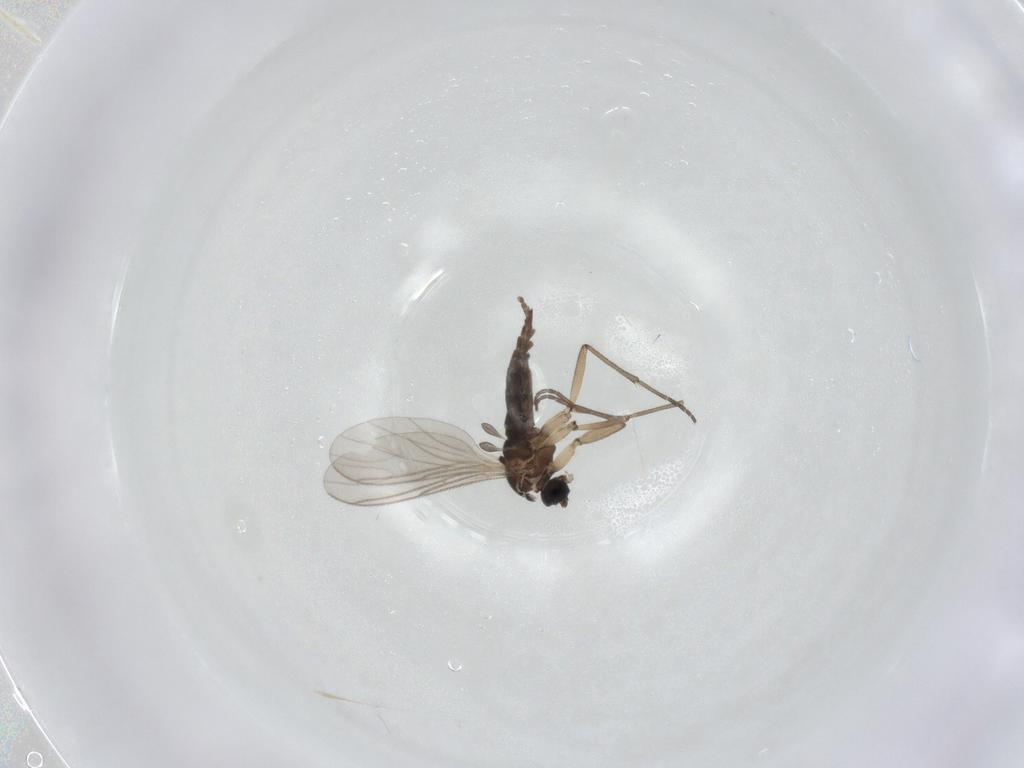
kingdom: Animalia
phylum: Arthropoda
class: Insecta
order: Diptera
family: Sciaridae
